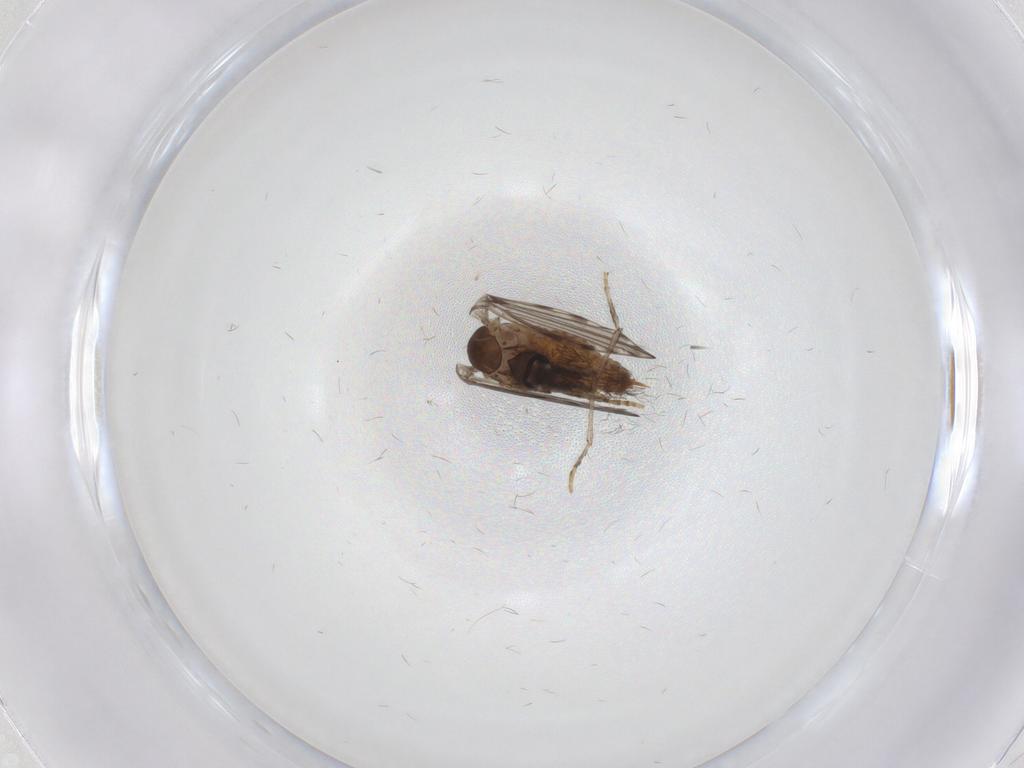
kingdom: Animalia
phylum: Arthropoda
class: Insecta
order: Diptera
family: Psychodidae
